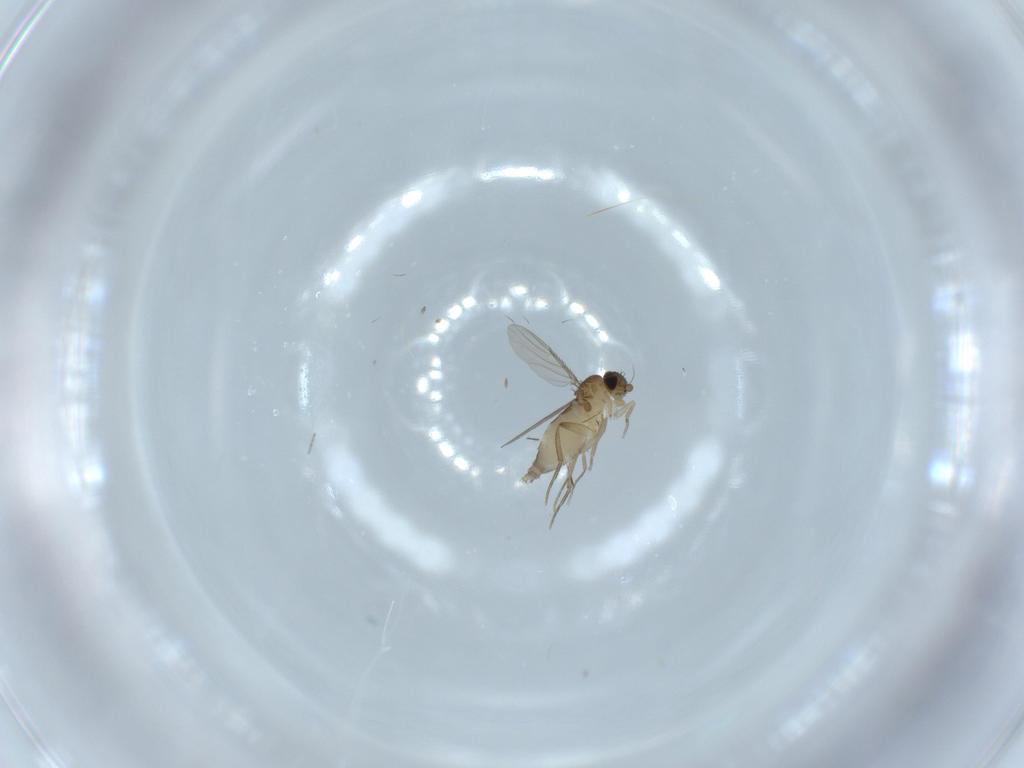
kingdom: Animalia
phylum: Arthropoda
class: Insecta
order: Diptera
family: Phoridae
